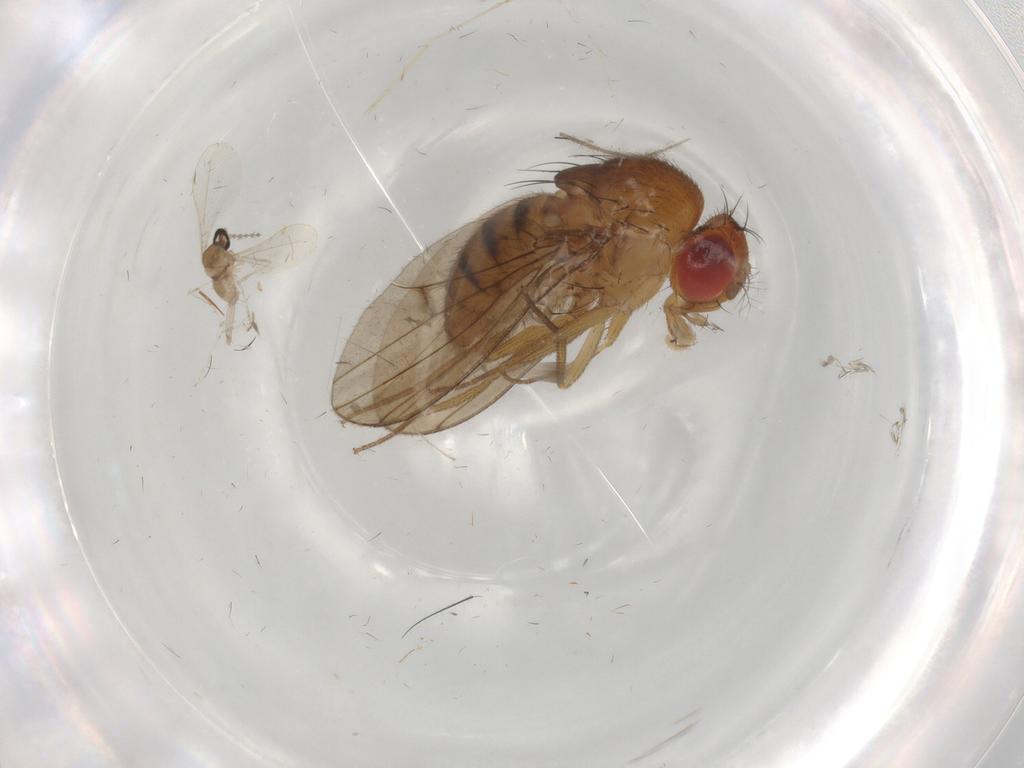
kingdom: Animalia
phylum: Arthropoda
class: Insecta
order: Diptera
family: Drosophilidae
